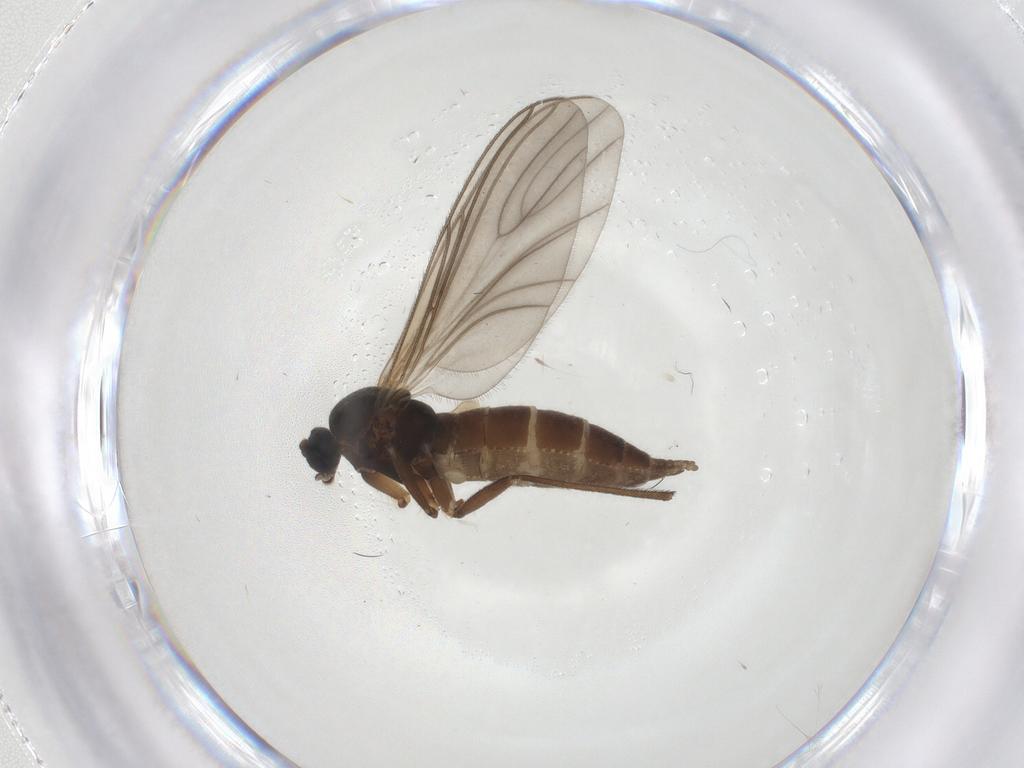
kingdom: Animalia
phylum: Arthropoda
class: Insecta
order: Diptera
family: Sciaridae
